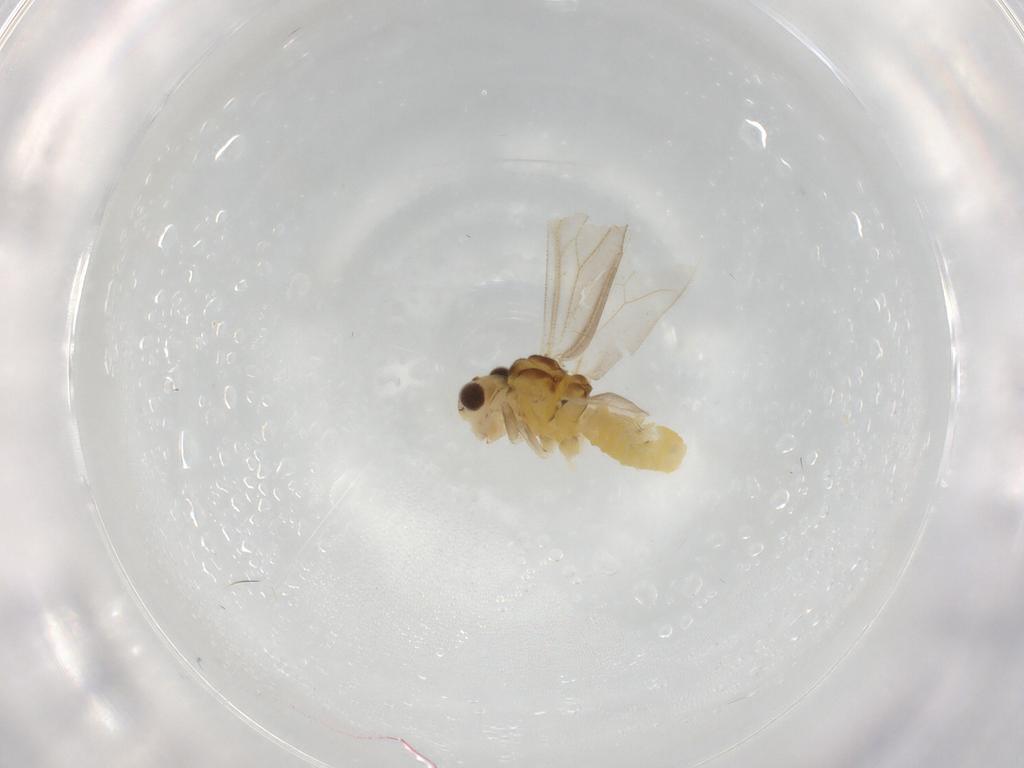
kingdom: Animalia
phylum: Arthropoda
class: Insecta
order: Psocodea
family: Caeciliusidae
